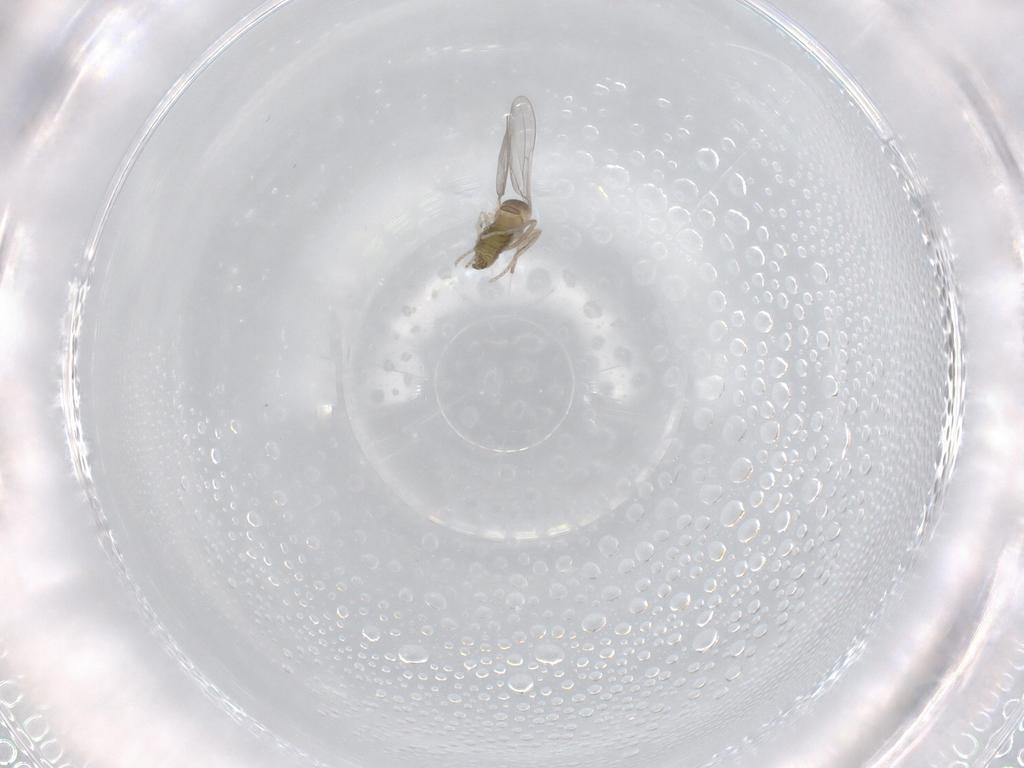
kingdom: Animalia
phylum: Arthropoda
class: Insecta
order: Diptera
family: Cecidomyiidae
